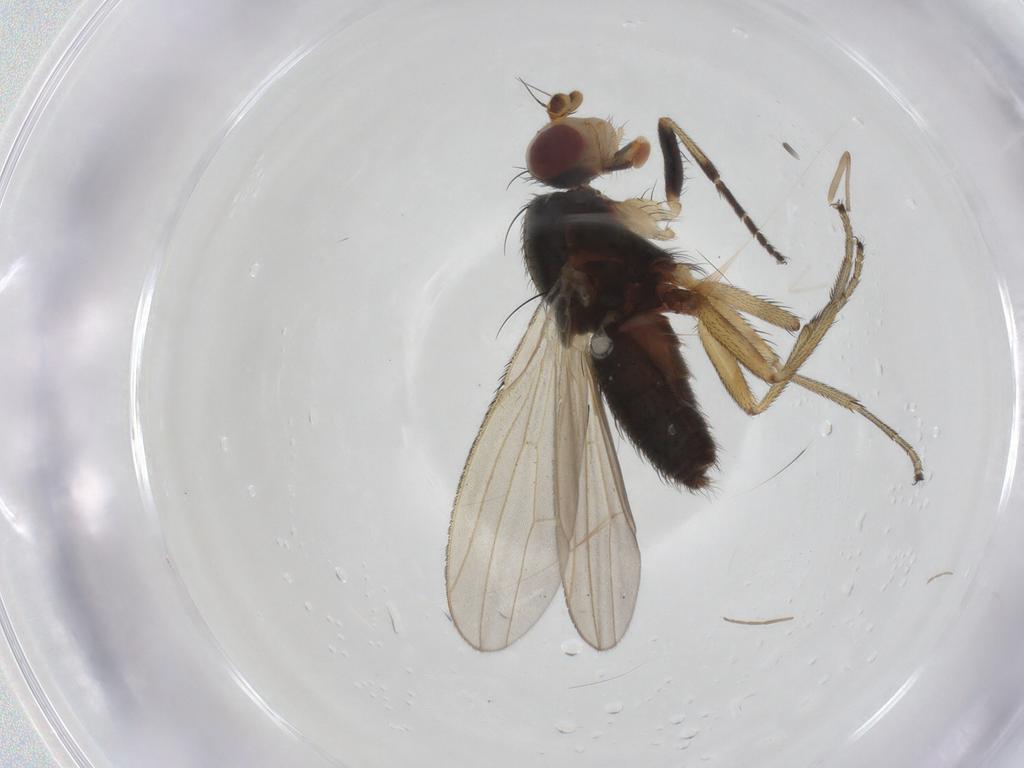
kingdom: Animalia
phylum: Arthropoda
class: Insecta
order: Diptera
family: Ulidiidae
